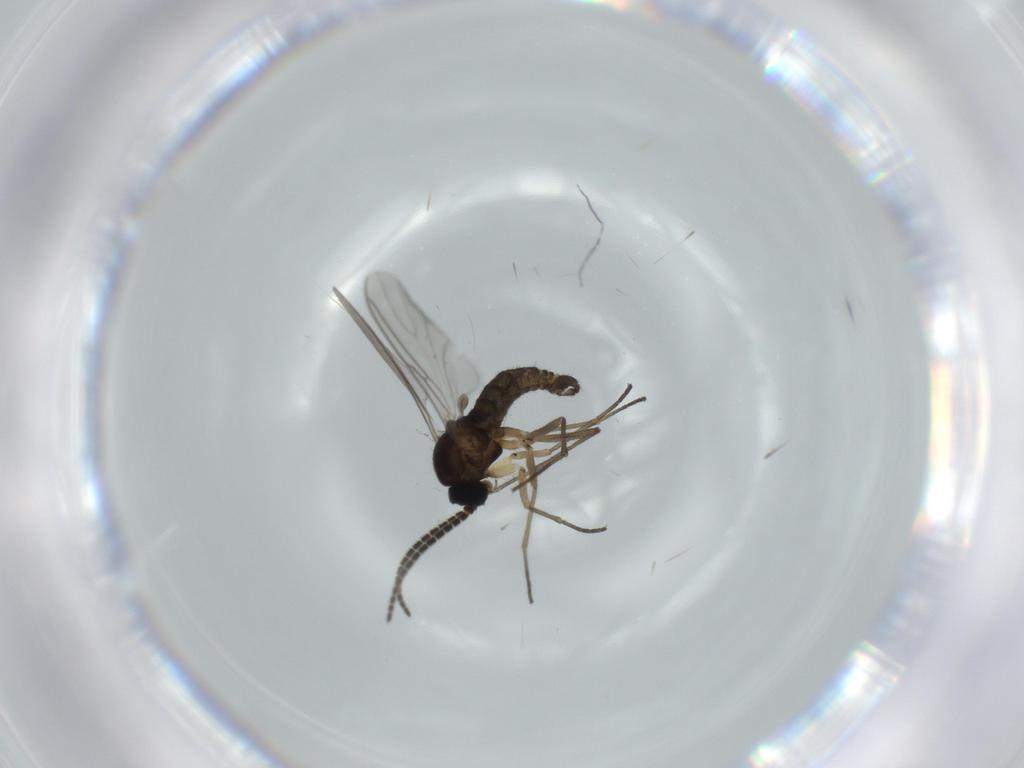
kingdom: Animalia
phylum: Arthropoda
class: Insecta
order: Diptera
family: Sciaridae
